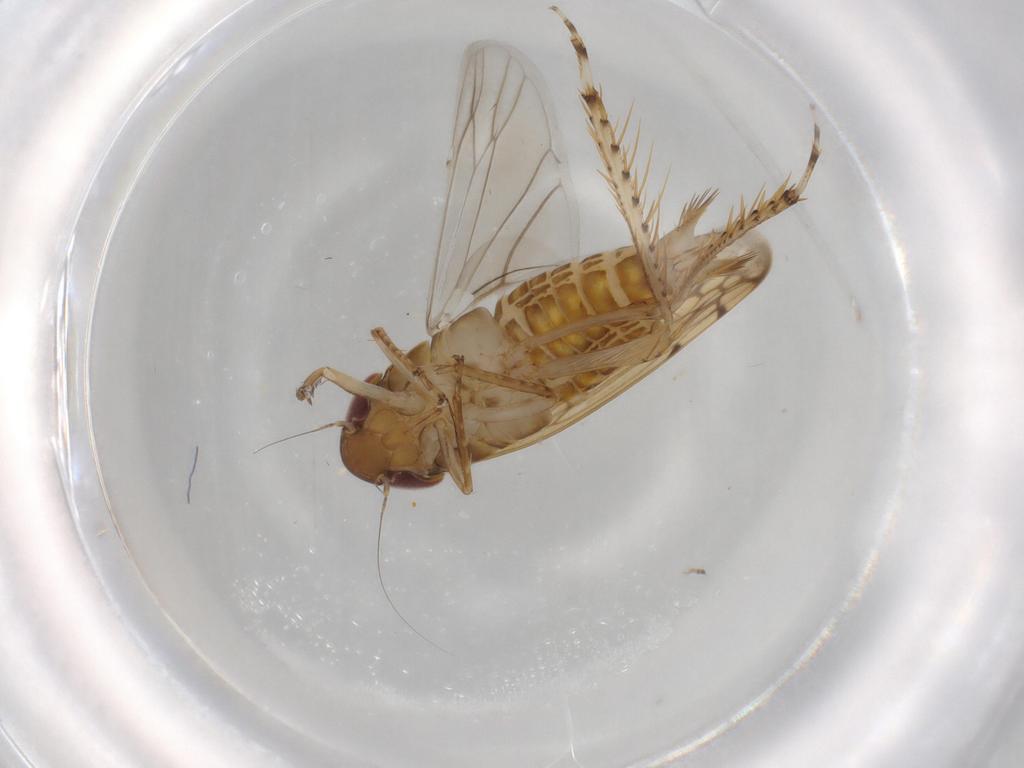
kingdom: Animalia
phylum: Arthropoda
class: Insecta
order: Hemiptera
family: Cicadellidae
